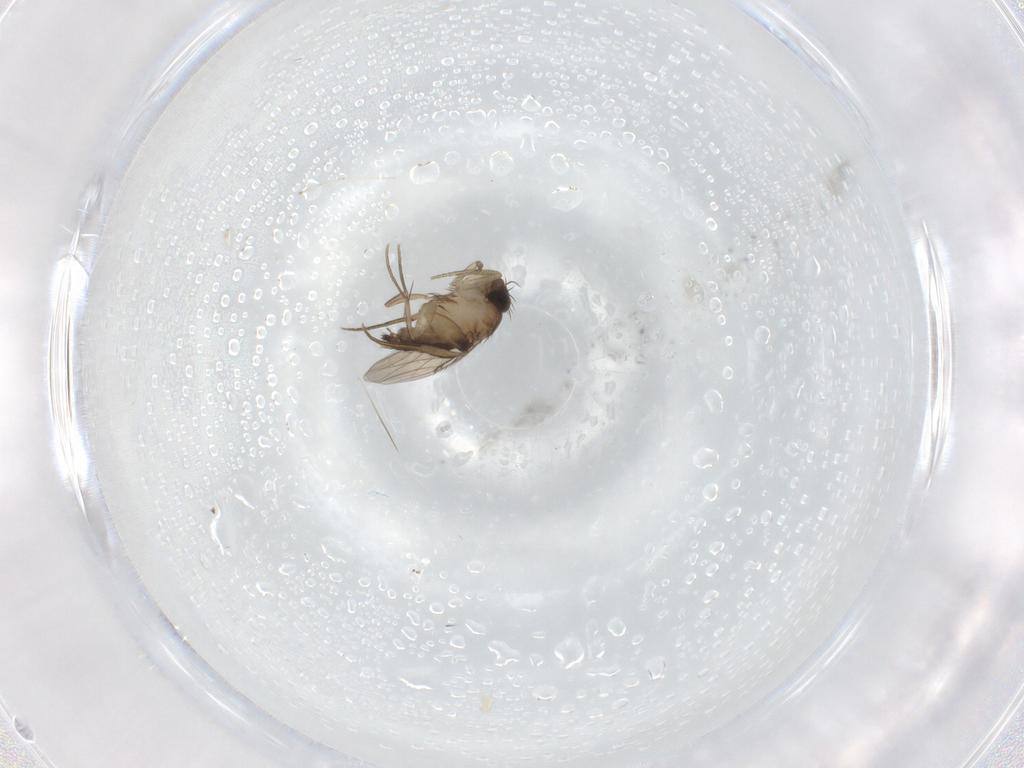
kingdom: Animalia
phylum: Arthropoda
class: Insecta
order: Diptera
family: Phoridae
